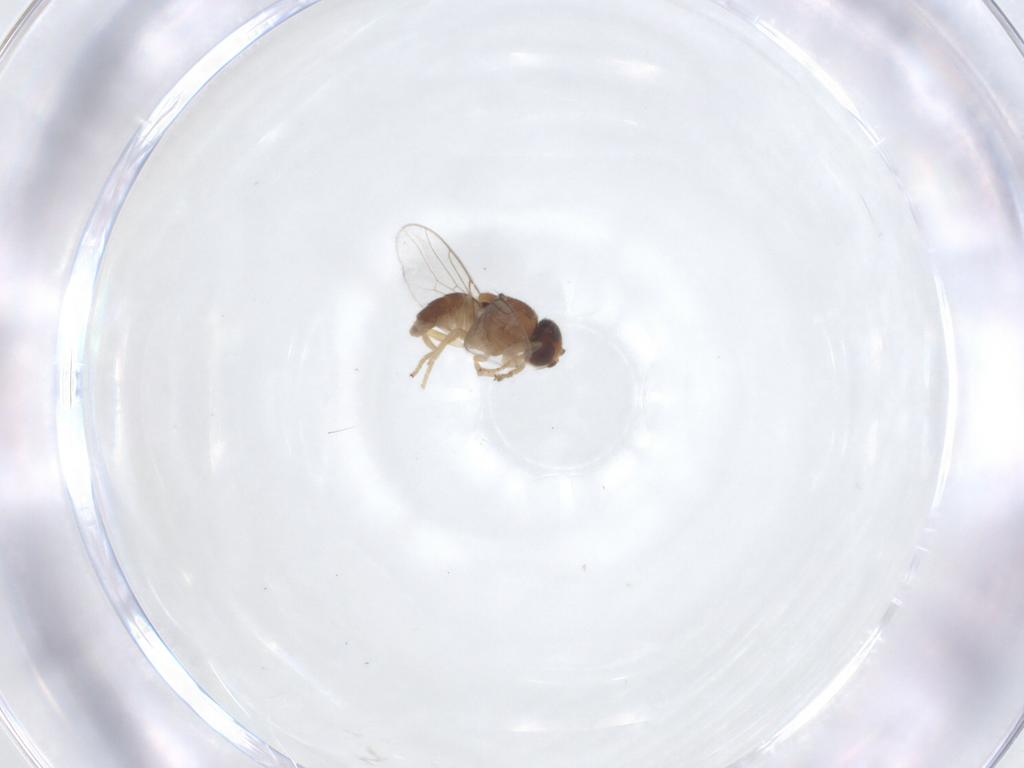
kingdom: Animalia
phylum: Arthropoda
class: Insecta
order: Diptera
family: Chloropidae
